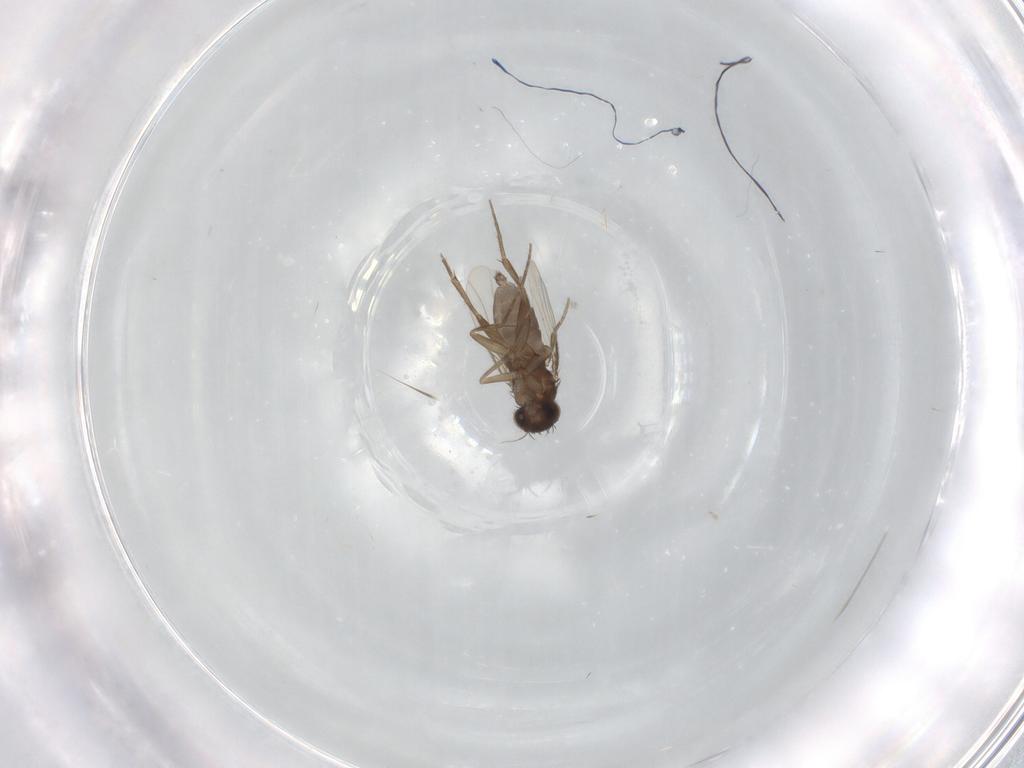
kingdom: Animalia
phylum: Arthropoda
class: Insecta
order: Diptera
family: Phoridae
